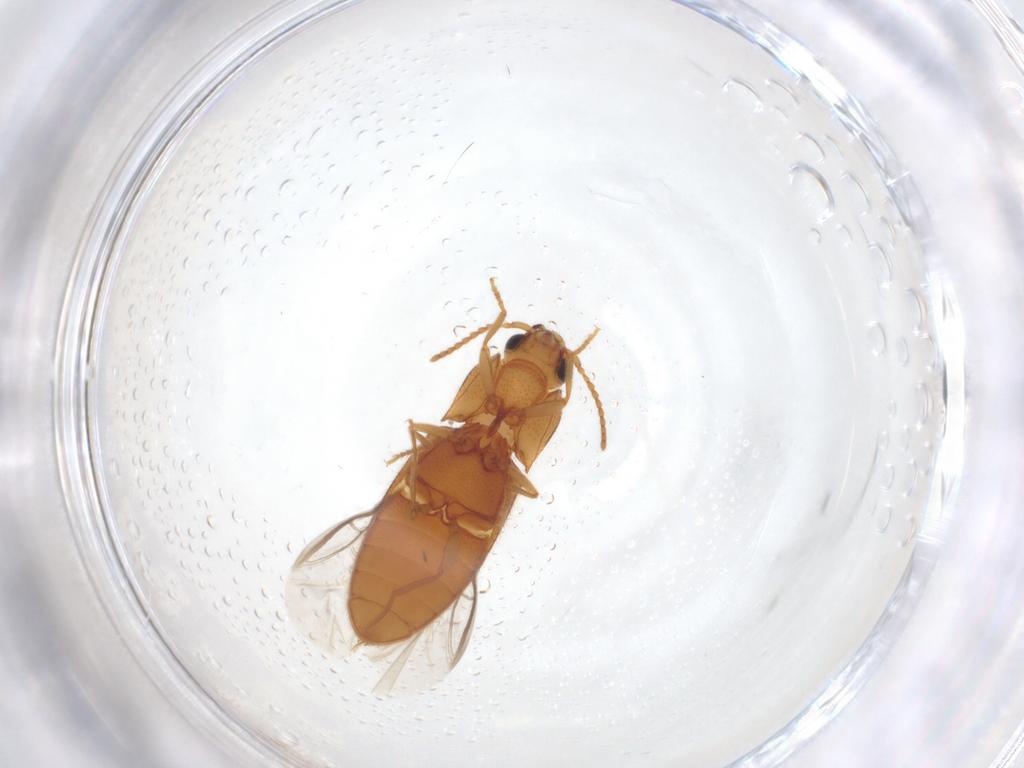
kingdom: Animalia
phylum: Arthropoda
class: Insecta
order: Coleoptera
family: Elateridae
